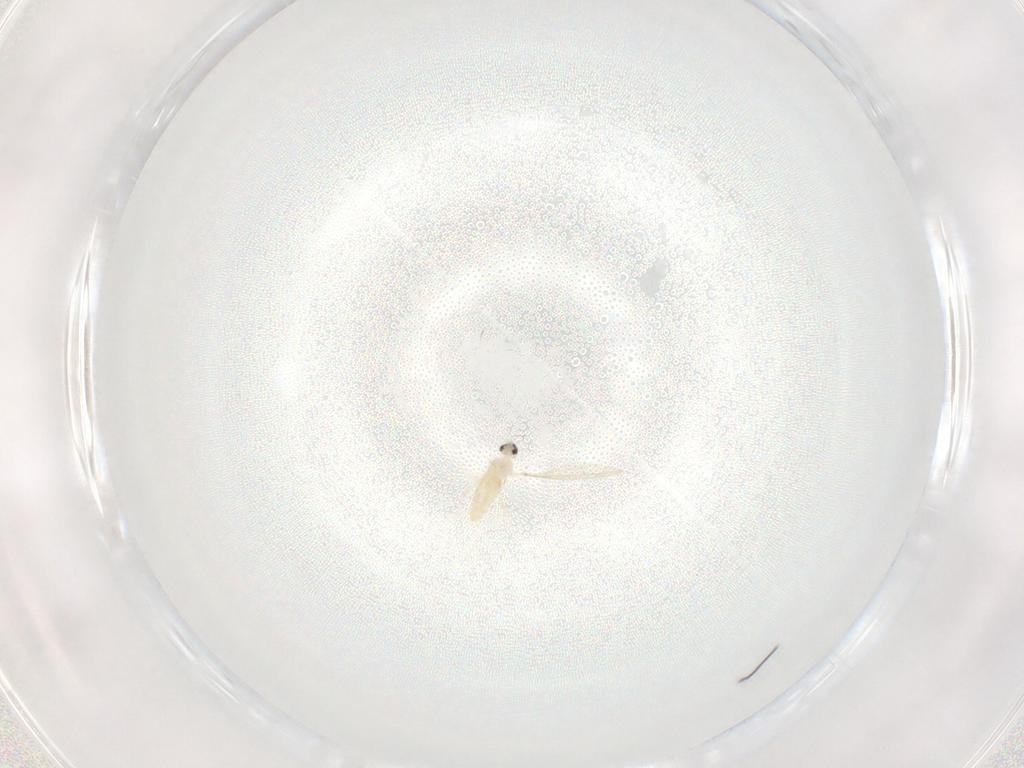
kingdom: Animalia
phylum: Arthropoda
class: Insecta
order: Diptera
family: Cecidomyiidae
